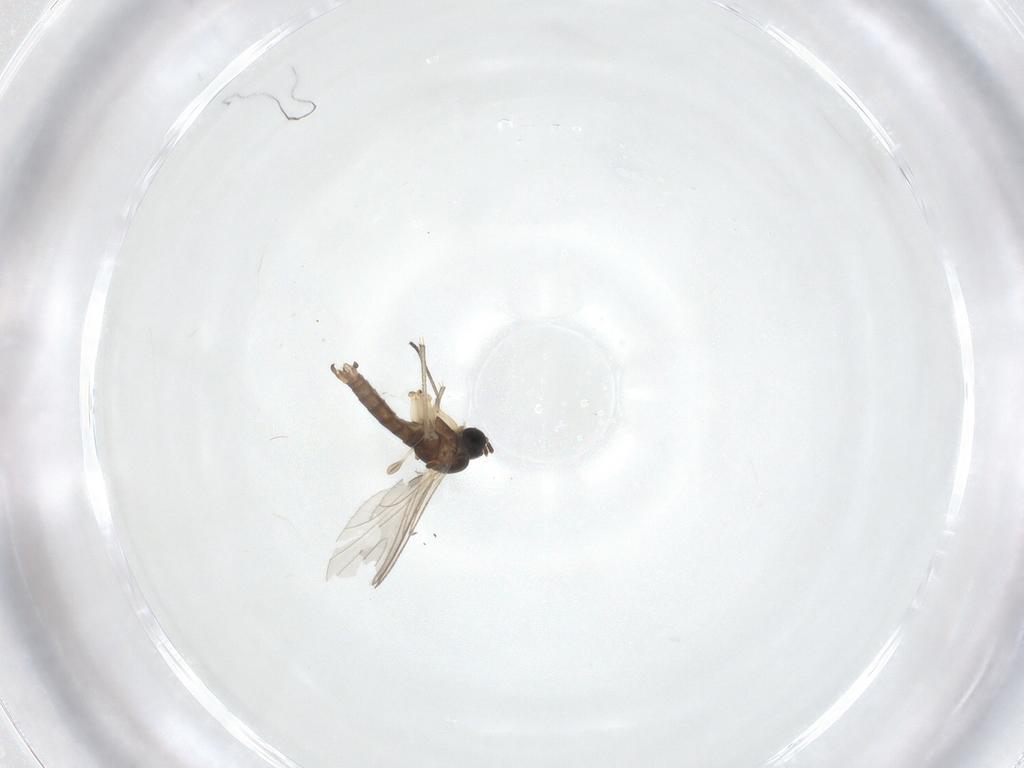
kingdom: Animalia
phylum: Arthropoda
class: Insecta
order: Diptera
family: Sciaridae
